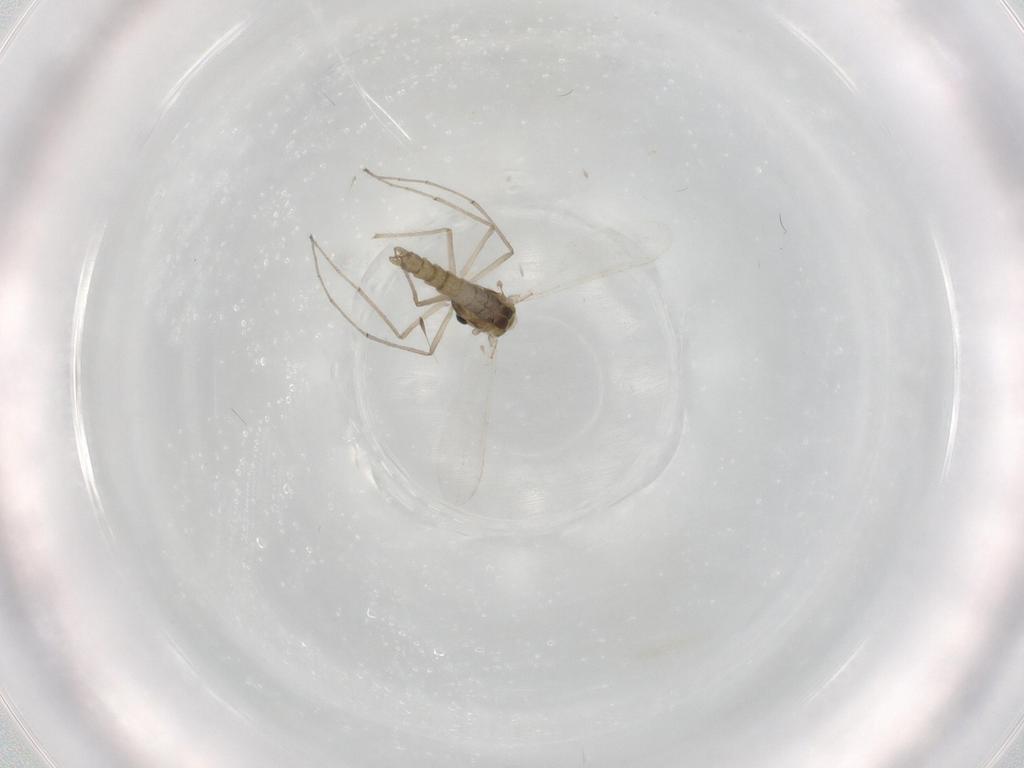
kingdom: Animalia
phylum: Arthropoda
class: Insecta
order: Diptera
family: Chironomidae
